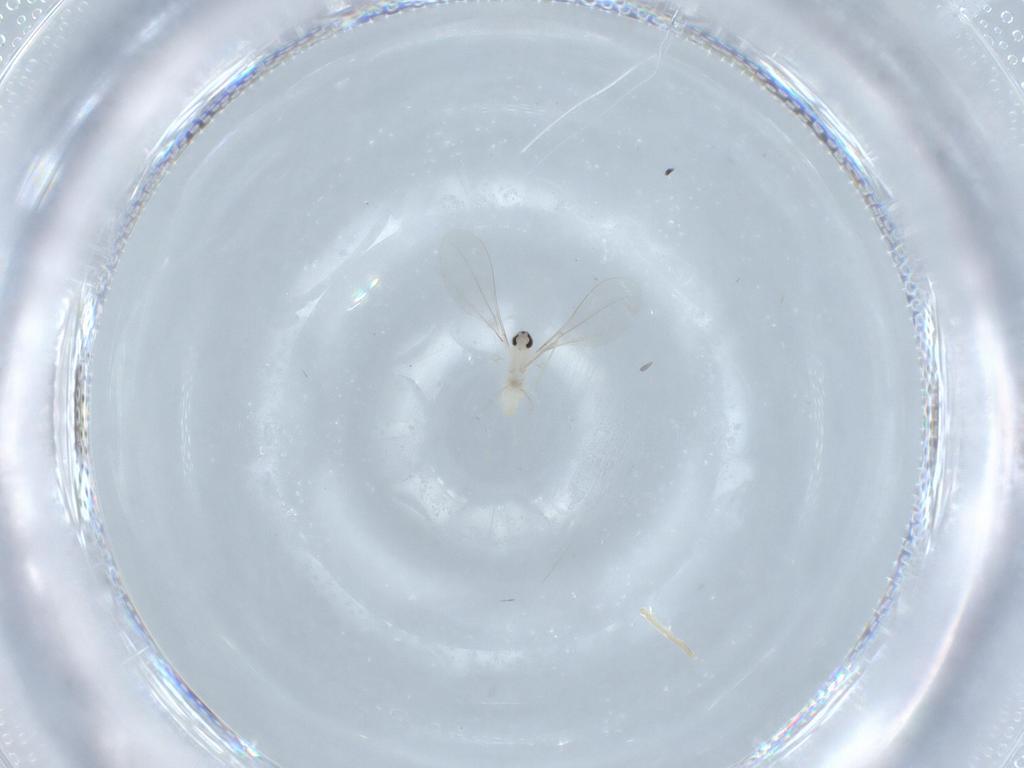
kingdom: Animalia
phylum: Arthropoda
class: Insecta
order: Diptera
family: Cecidomyiidae
